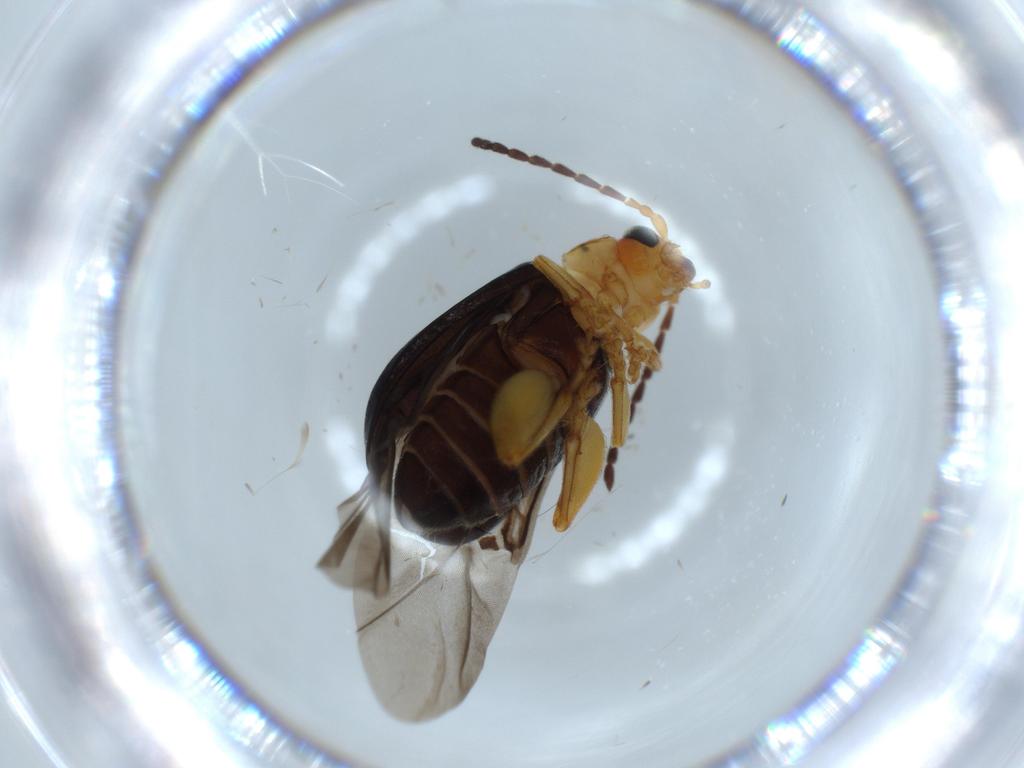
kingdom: Animalia
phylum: Arthropoda
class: Insecta
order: Coleoptera
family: Chrysomelidae
